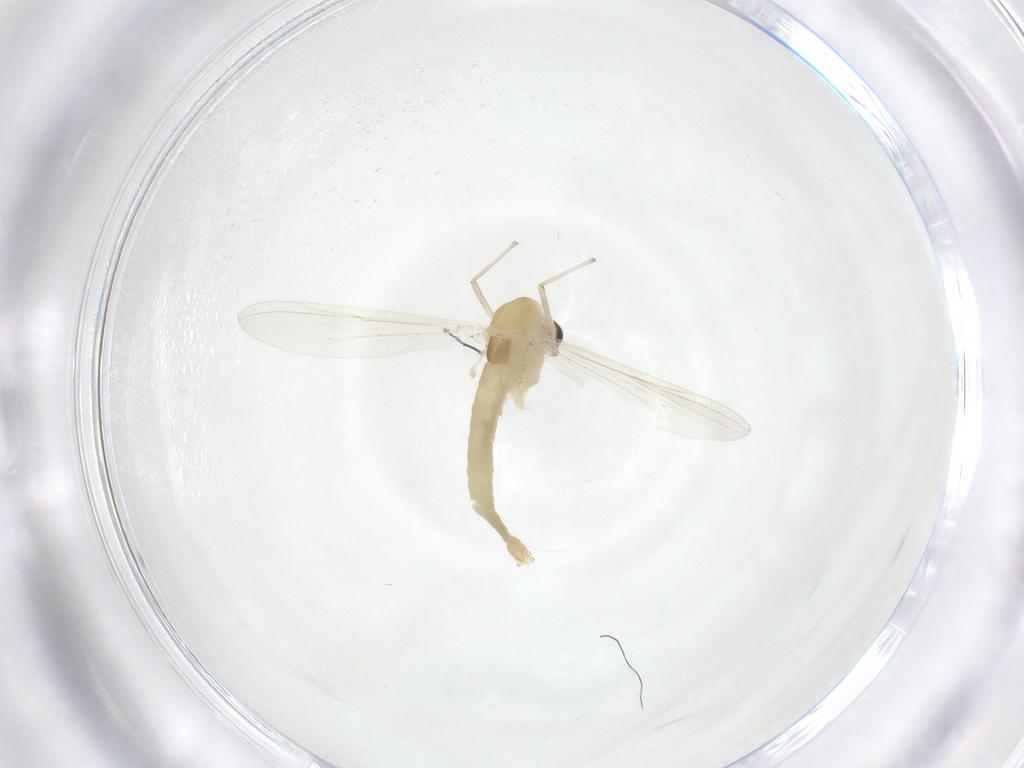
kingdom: Animalia
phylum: Arthropoda
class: Insecta
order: Diptera
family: Chironomidae
